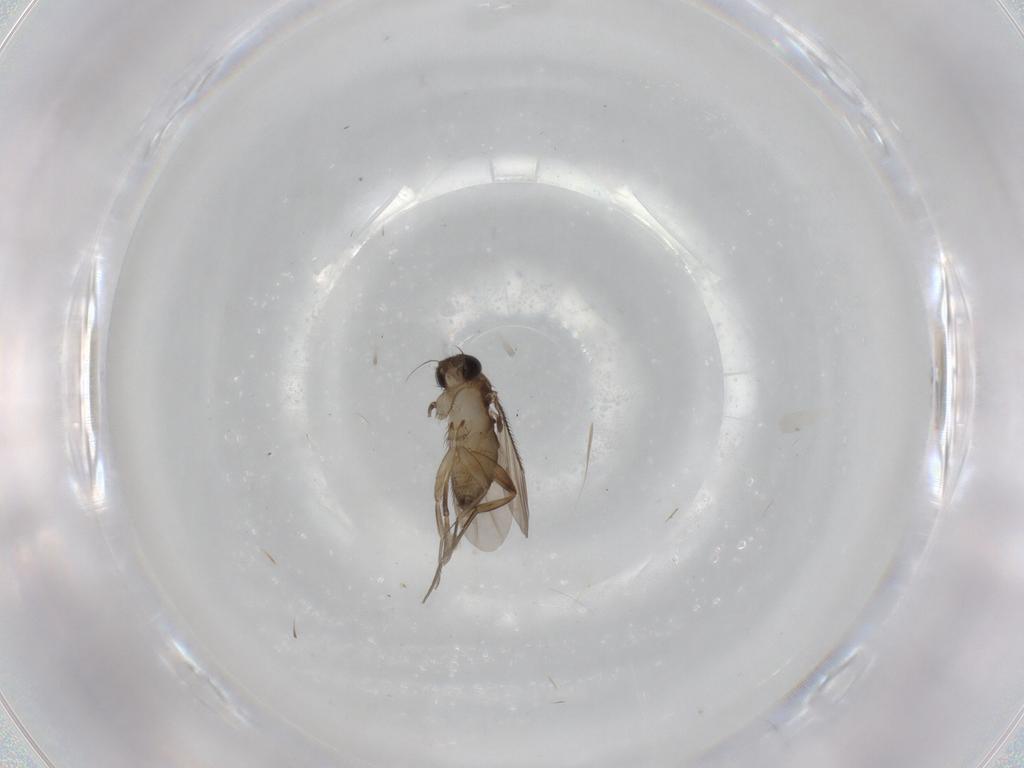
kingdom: Animalia
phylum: Arthropoda
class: Insecta
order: Diptera
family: Phoridae
